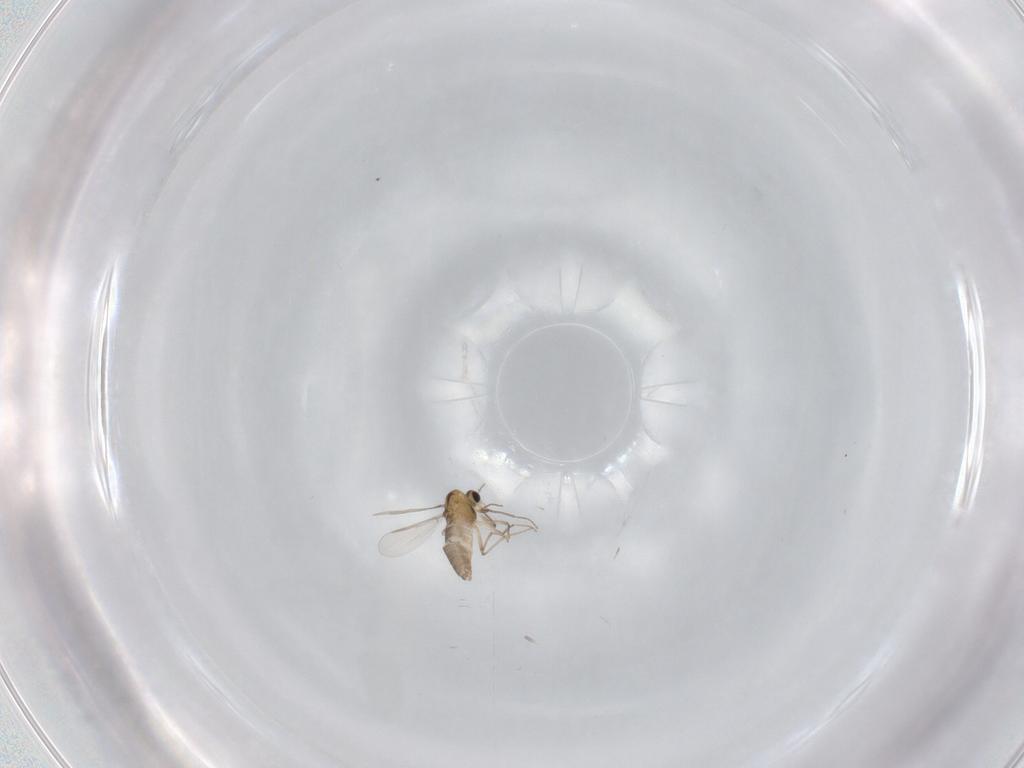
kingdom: Animalia
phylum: Arthropoda
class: Insecta
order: Diptera
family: Chironomidae
